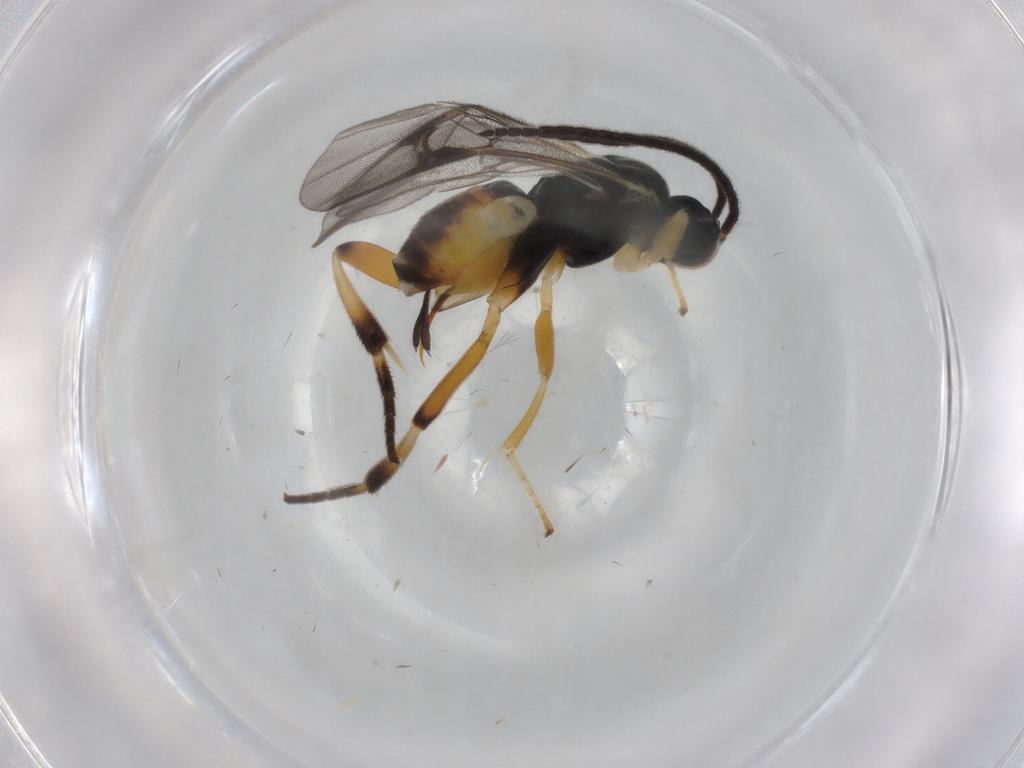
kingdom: Animalia
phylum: Arthropoda
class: Insecta
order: Hymenoptera
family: Braconidae
